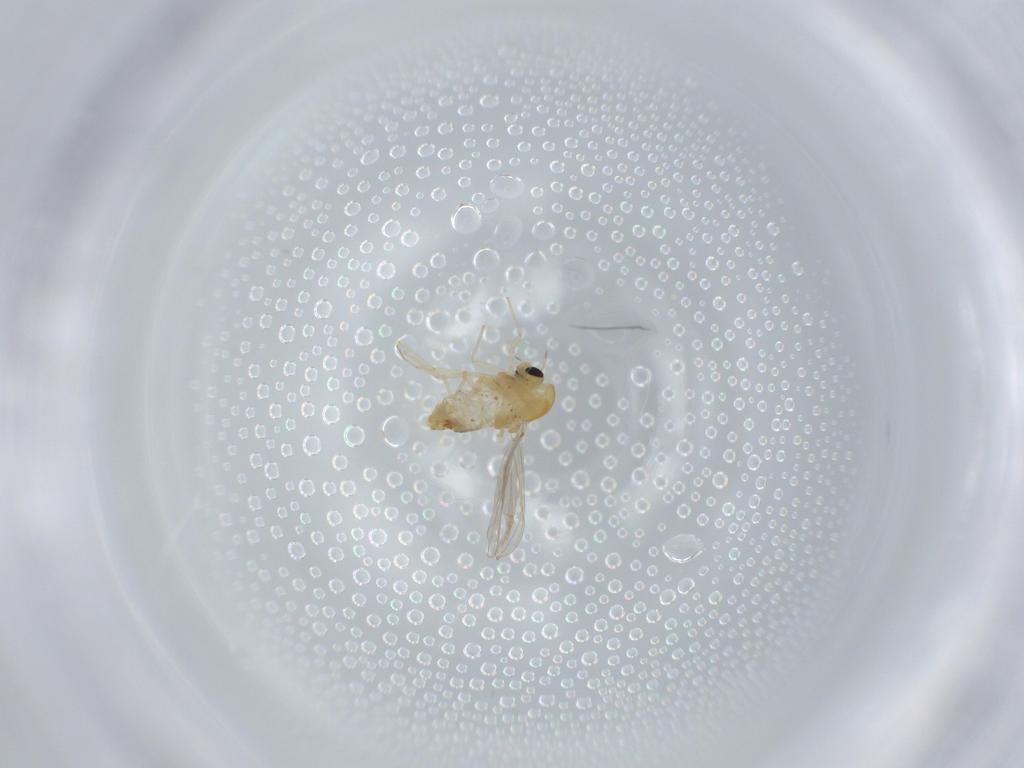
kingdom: Animalia
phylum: Arthropoda
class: Insecta
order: Diptera
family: Chironomidae
